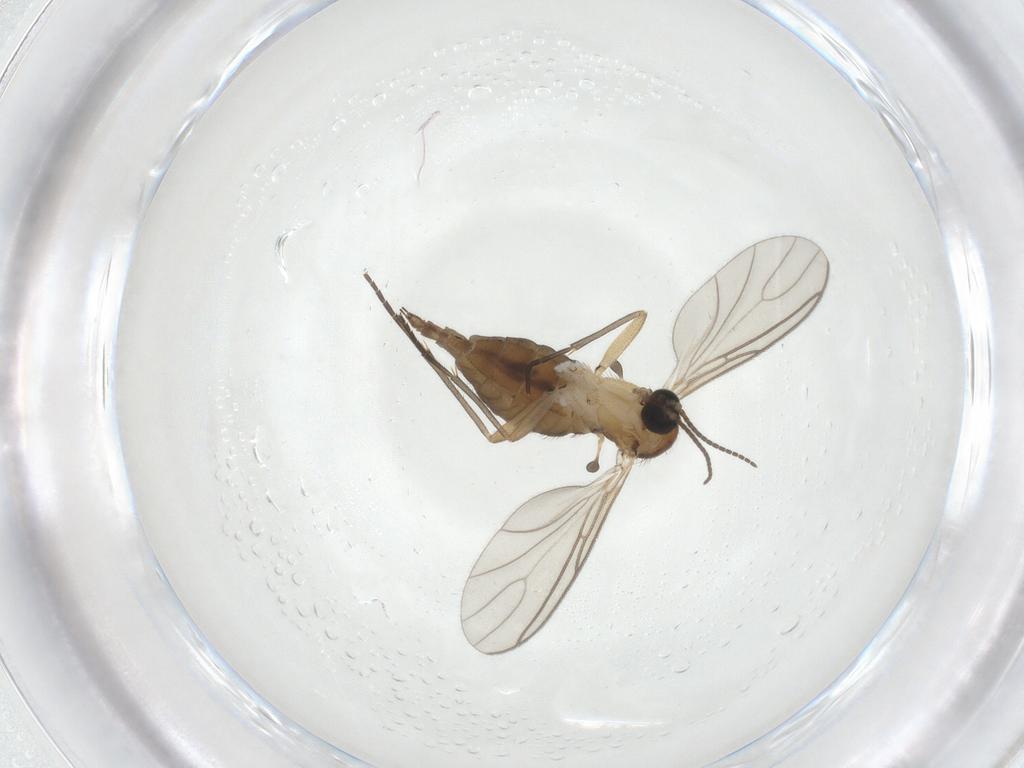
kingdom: Animalia
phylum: Arthropoda
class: Insecta
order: Diptera
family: Sciaridae
